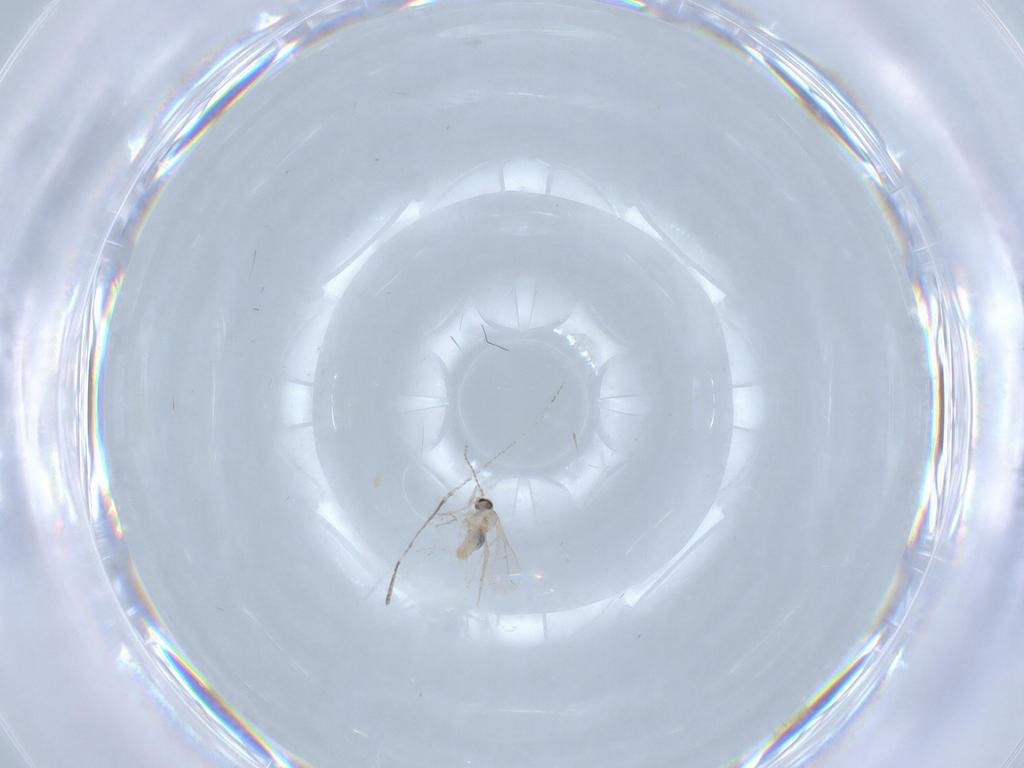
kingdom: Animalia
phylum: Arthropoda
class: Insecta
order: Diptera
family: Cecidomyiidae
